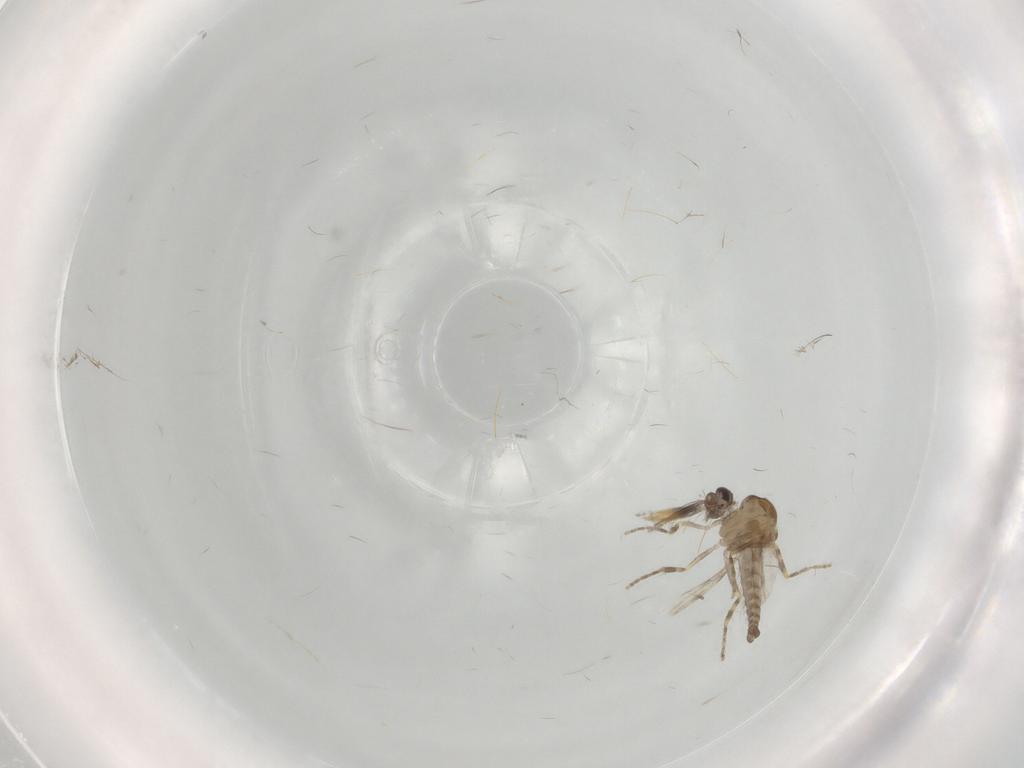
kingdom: Animalia
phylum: Arthropoda
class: Insecta
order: Diptera
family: Ceratopogonidae
